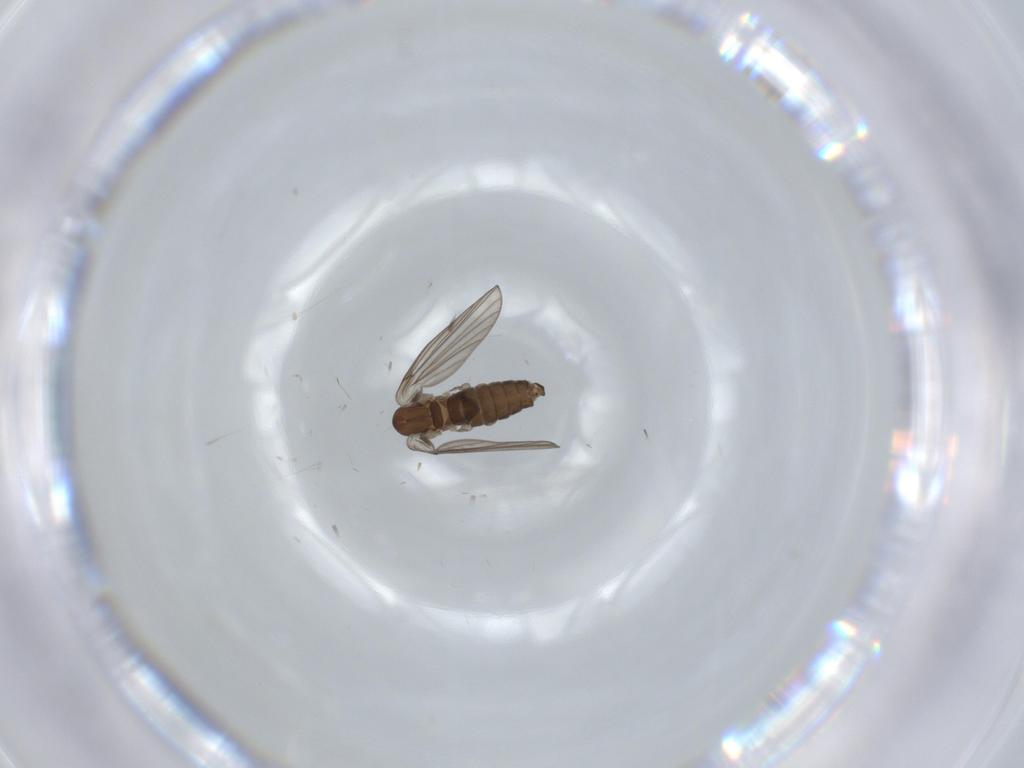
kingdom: Animalia
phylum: Arthropoda
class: Insecta
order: Diptera
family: Psychodidae
